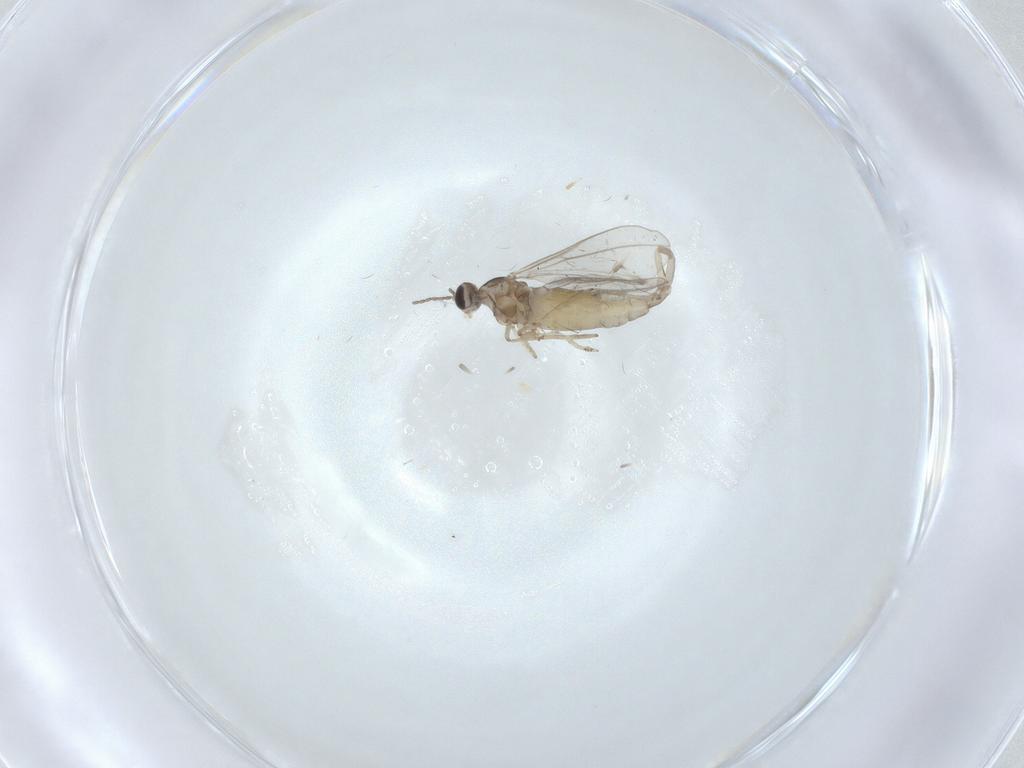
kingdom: Animalia
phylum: Arthropoda
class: Insecta
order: Diptera
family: Cecidomyiidae
